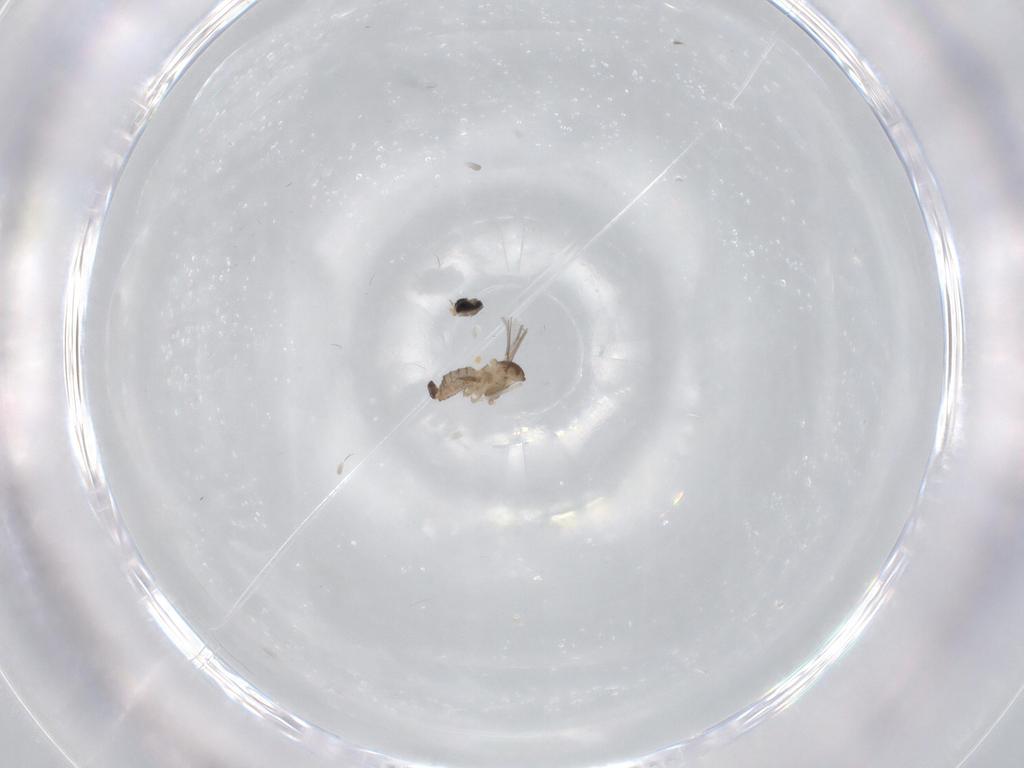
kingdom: Animalia
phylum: Arthropoda
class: Insecta
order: Diptera
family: Cecidomyiidae
